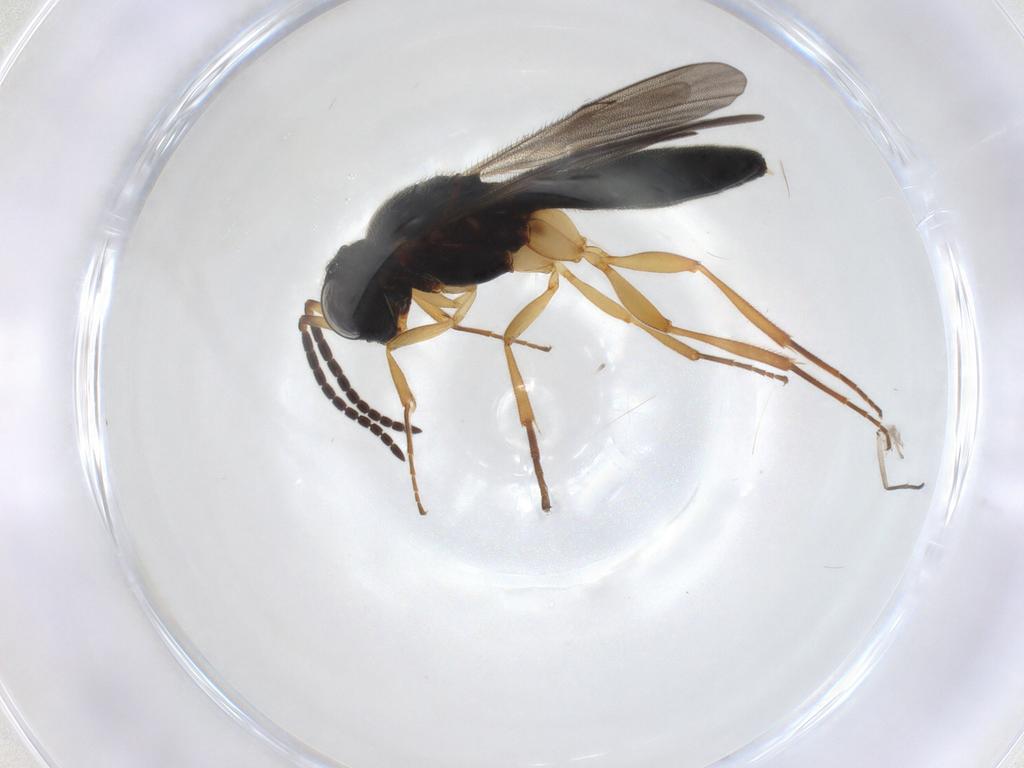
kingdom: Animalia
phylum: Arthropoda
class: Insecta
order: Hymenoptera
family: Scelionidae
